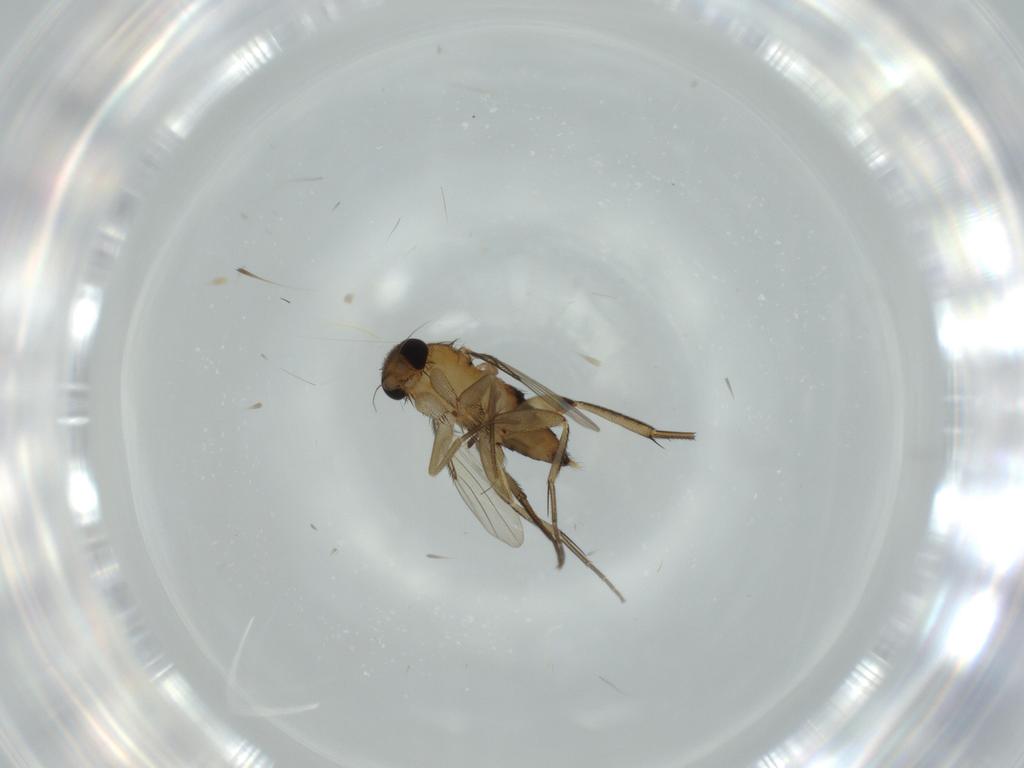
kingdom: Animalia
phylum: Arthropoda
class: Insecta
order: Diptera
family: Phoridae
